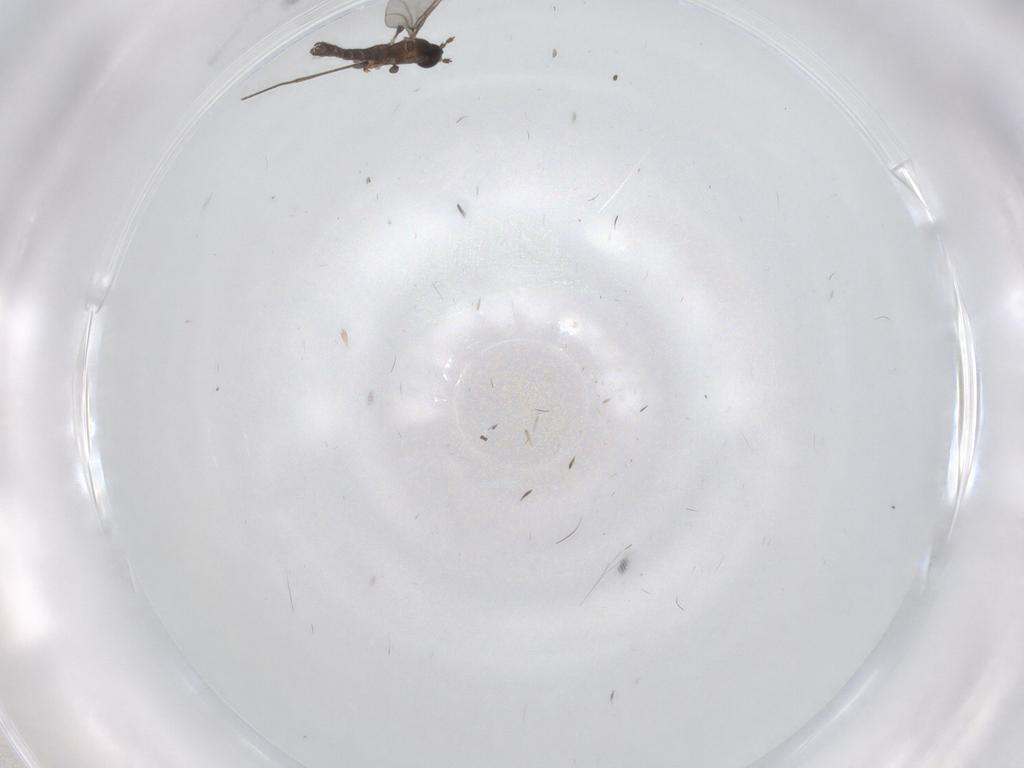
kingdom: Animalia
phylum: Arthropoda
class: Insecta
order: Diptera
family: Cecidomyiidae
